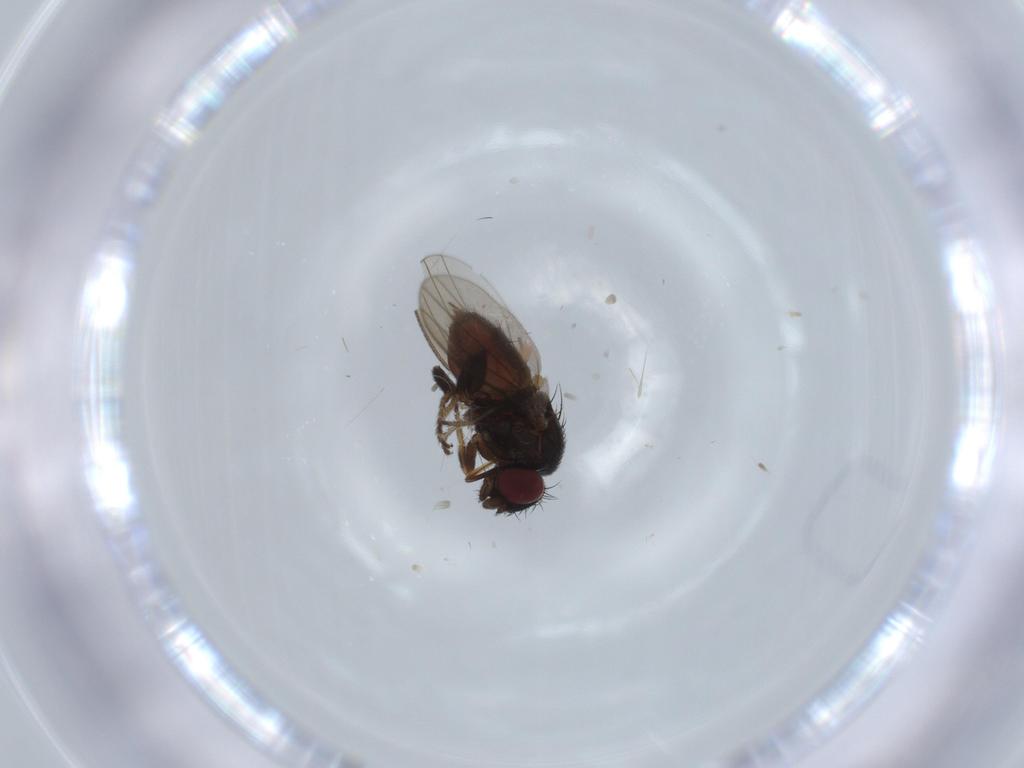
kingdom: Animalia
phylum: Arthropoda
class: Insecta
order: Diptera
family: Milichiidae
